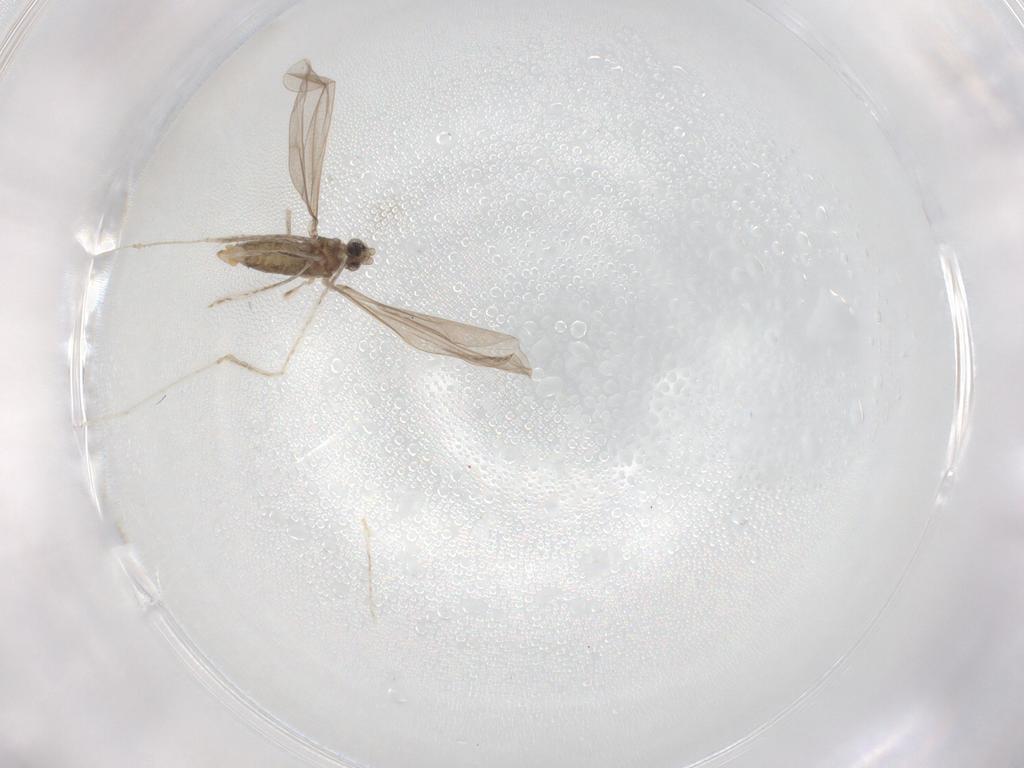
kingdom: Animalia
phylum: Arthropoda
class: Insecta
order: Diptera
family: Cecidomyiidae
